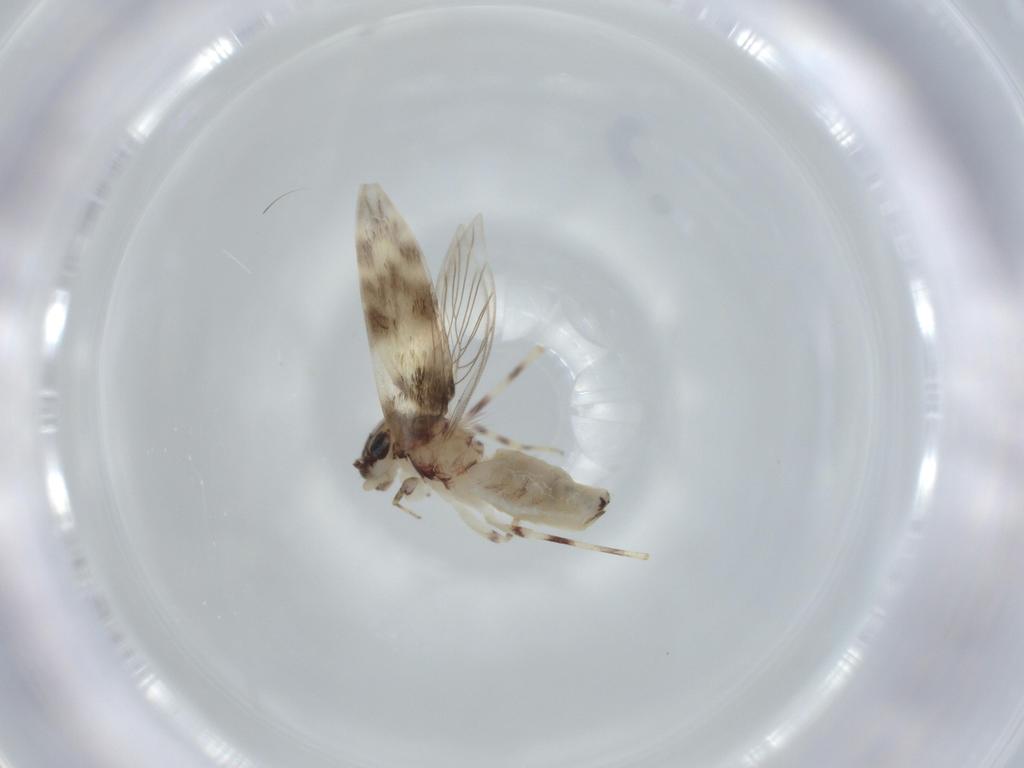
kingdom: Animalia
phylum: Arthropoda
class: Insecta
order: Psocodea
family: Lepidopsocidae
